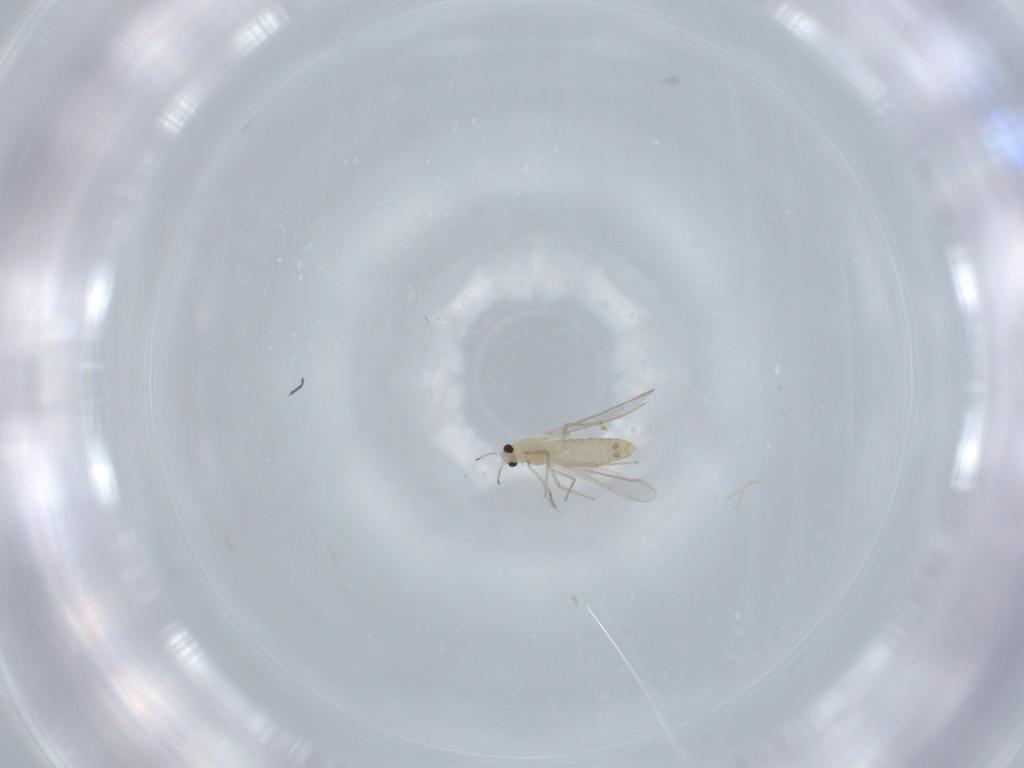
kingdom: Animalia
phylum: Arthropoda
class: Insecta
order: Diptera
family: Chironomidae
